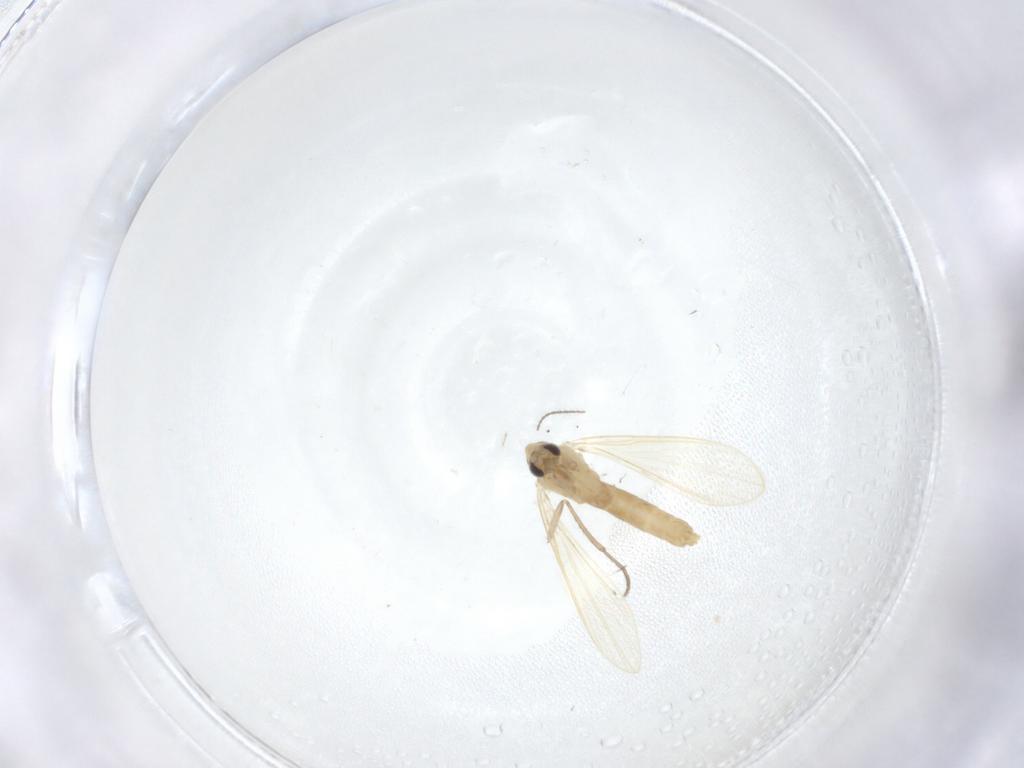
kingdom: Animalia
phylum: Arthropoda
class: Insecta
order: Diptera
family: Psychodidae
